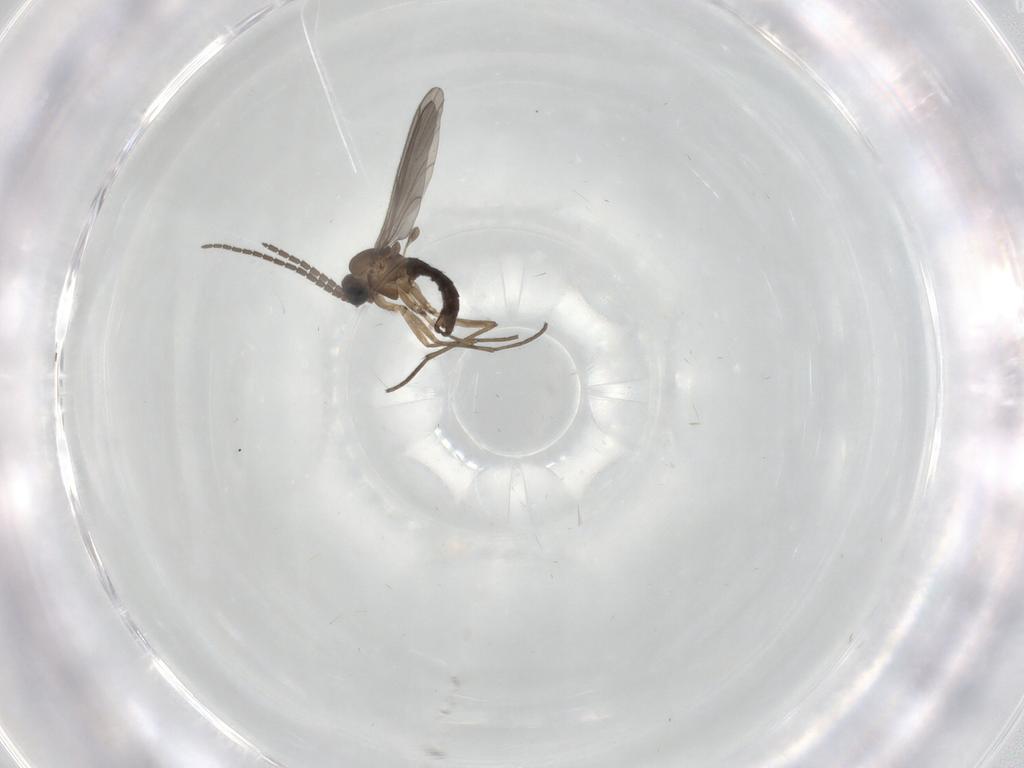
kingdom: Animalia
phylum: Arthropoda
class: Insecta
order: Diptera
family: Sciaridae
